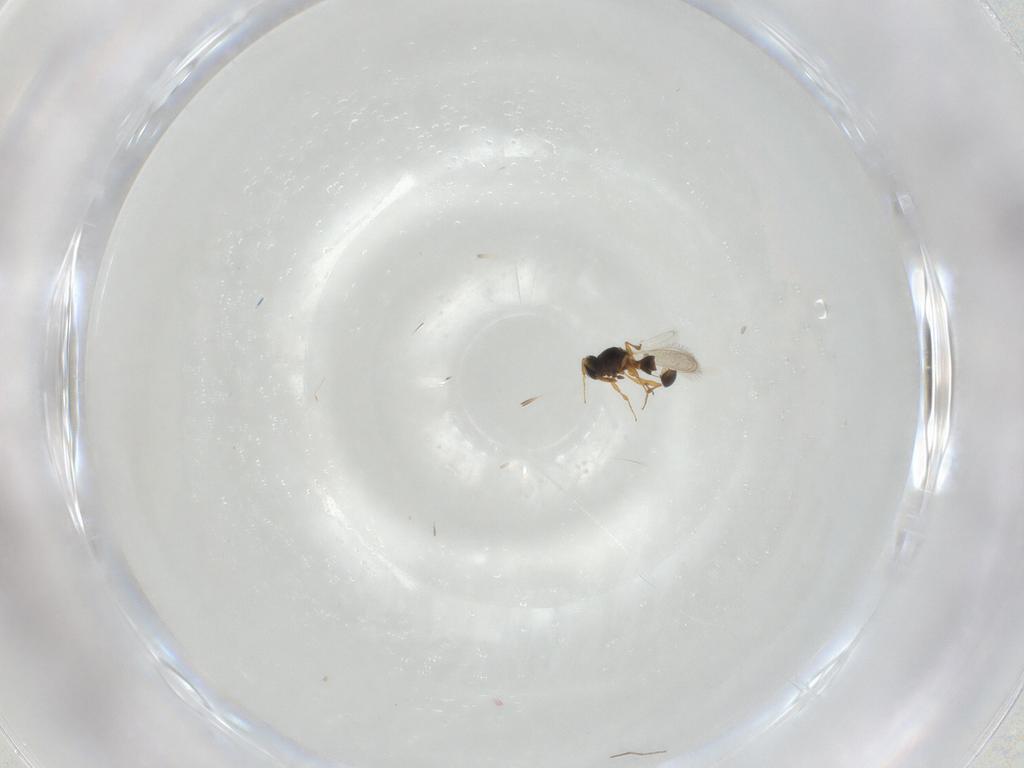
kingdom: Animalia
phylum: Arthropoda
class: Insecta
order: Hymenoptera
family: Platygastridae
